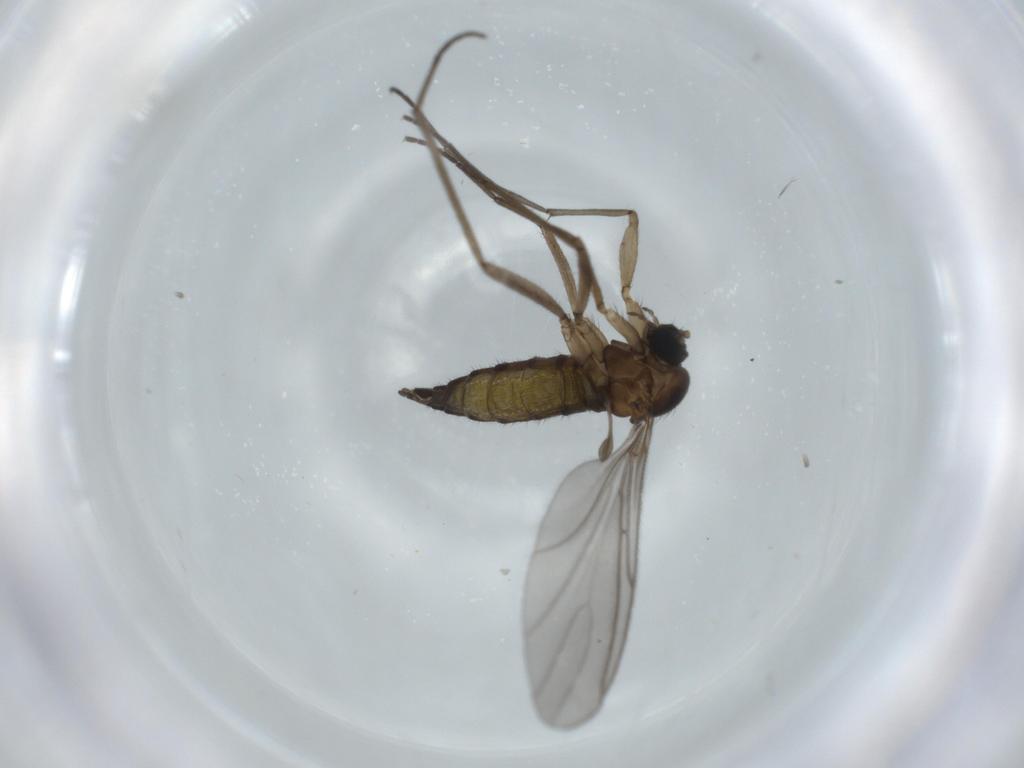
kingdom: Animalia
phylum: Arthropoda
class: Insecta
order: Diptera
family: Sciaridae
